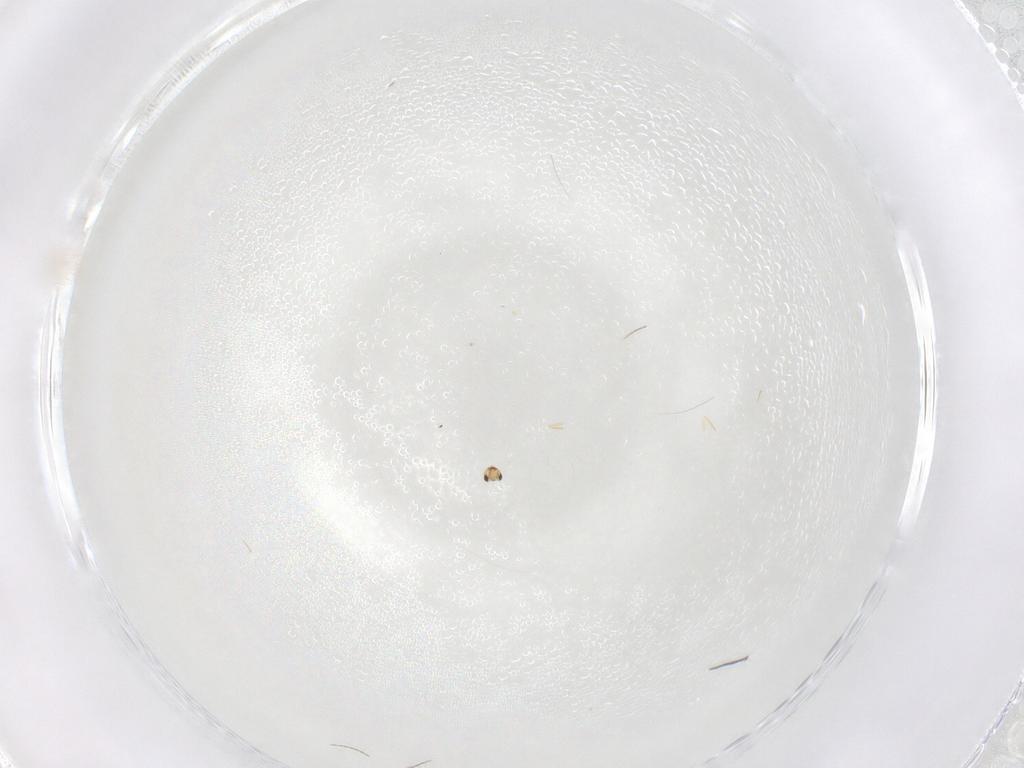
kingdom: Animalia
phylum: Arthropoda
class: Insecta
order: Hymenoptera
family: Mymaridae
